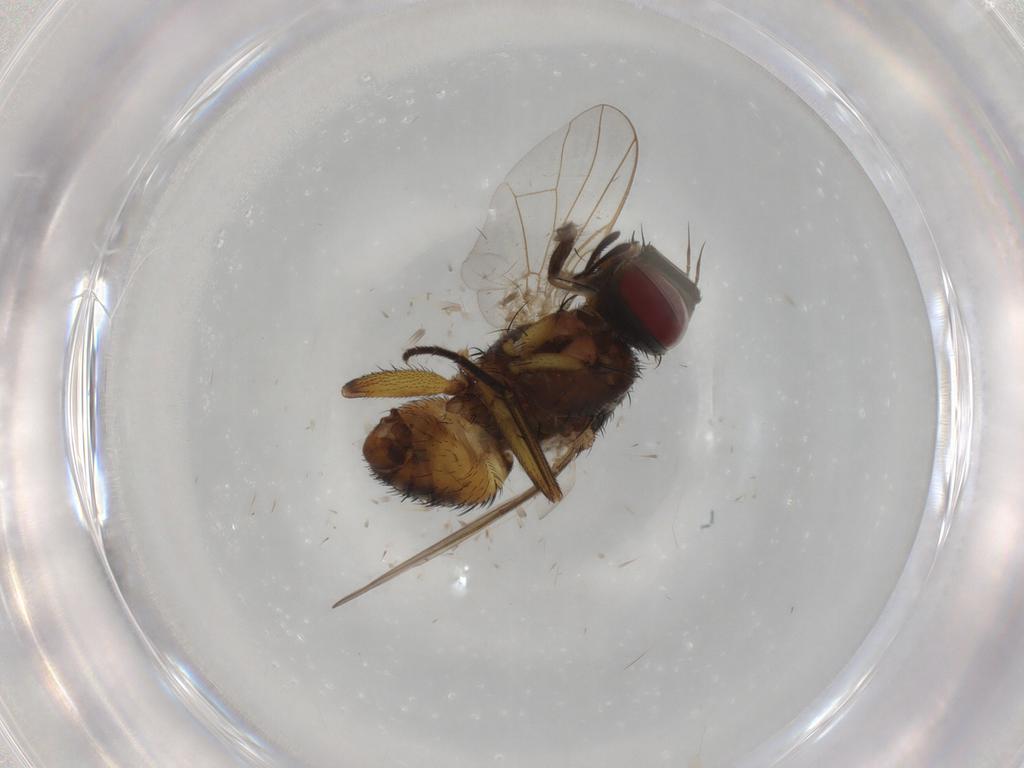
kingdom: Animalia
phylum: Arthropoda
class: Insecta
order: Diptera
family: Muscidae
